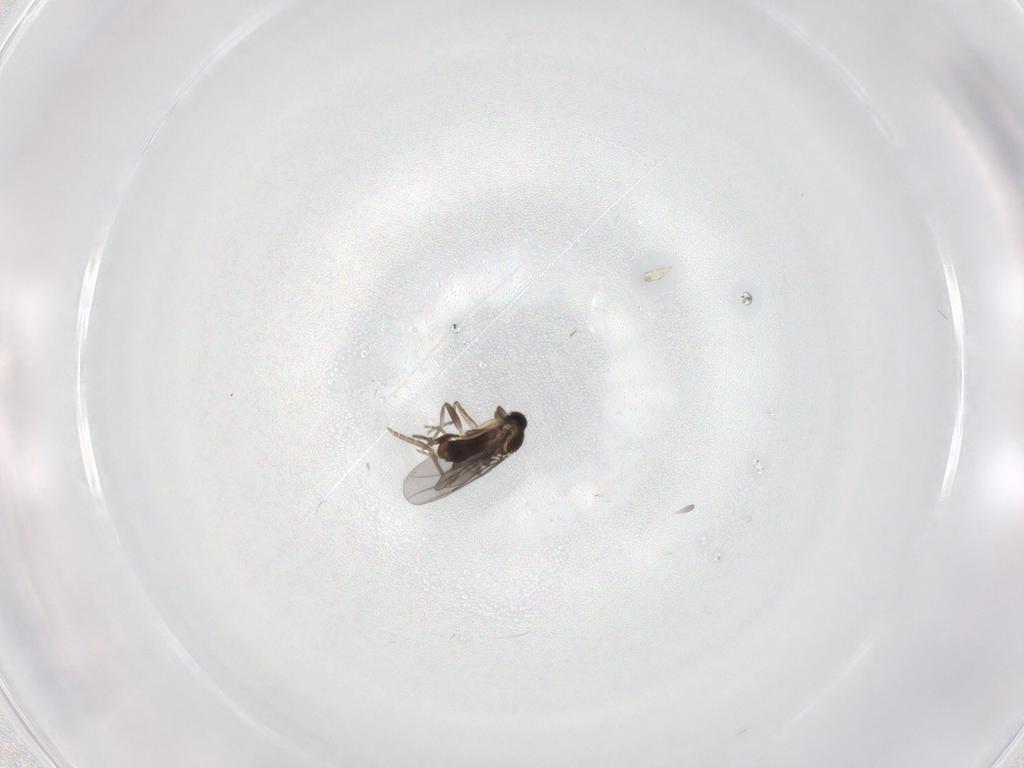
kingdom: Animalia
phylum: Arthropoda
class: Insecta
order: Diptera
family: Sciaridae
